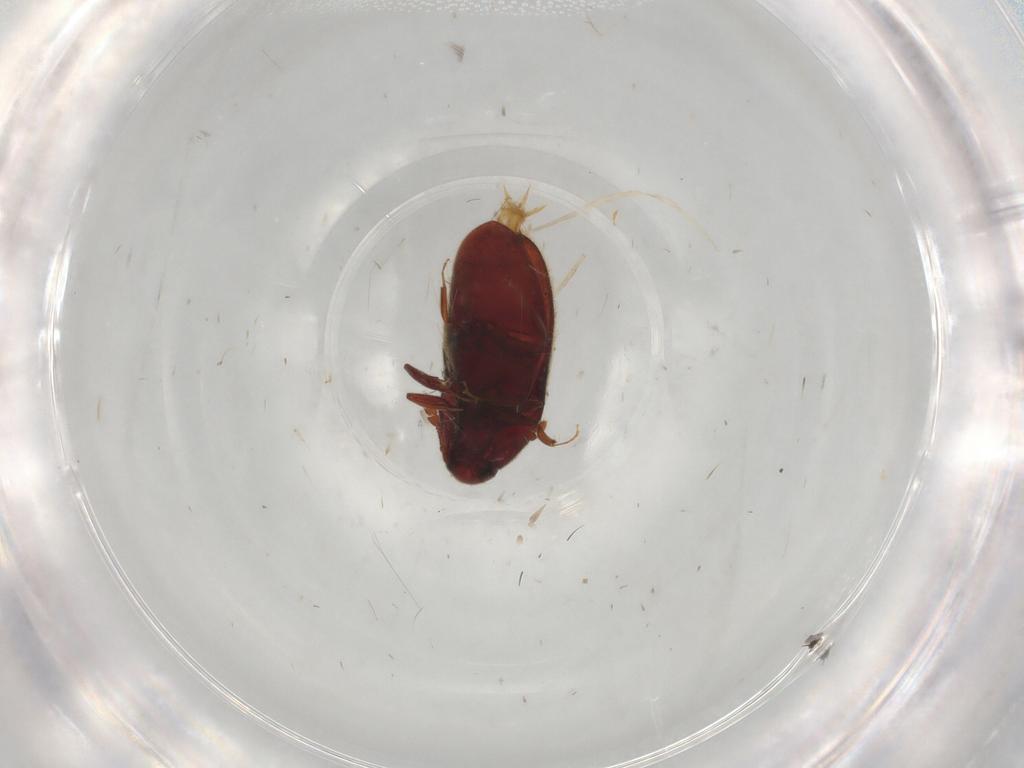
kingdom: Animalia
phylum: Arthropoda
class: Insecta
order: Coleoptera
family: Throscidae
